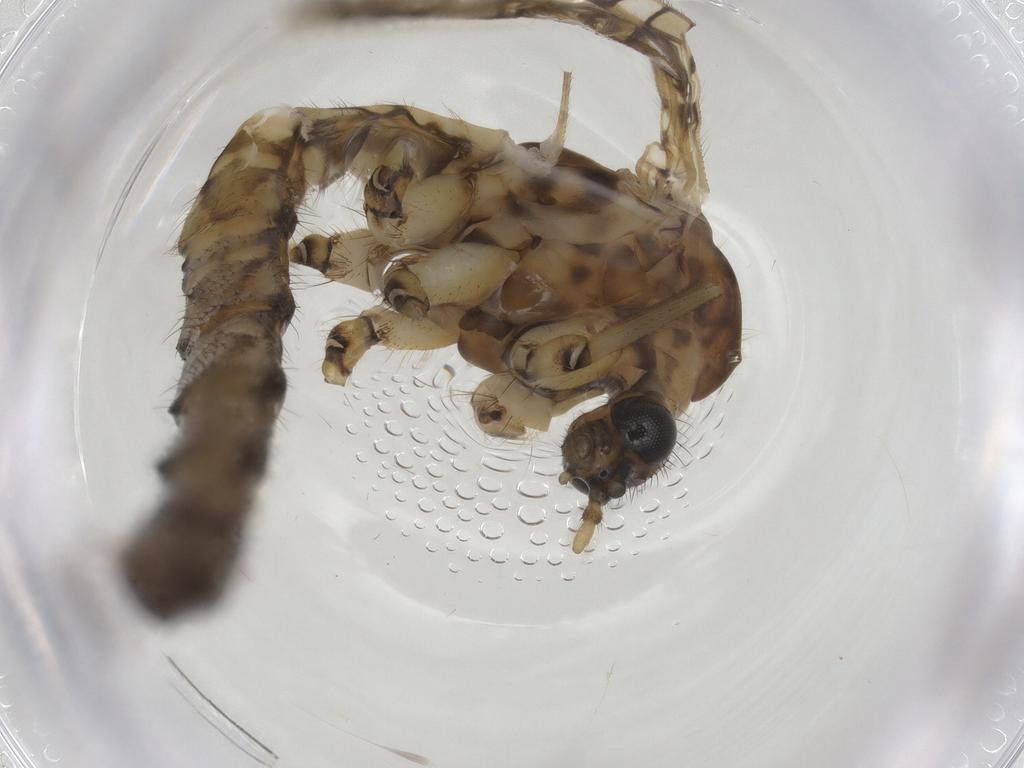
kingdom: Animalia
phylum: Arthropoda
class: Insecta
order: Diptera
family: Limoniidae
